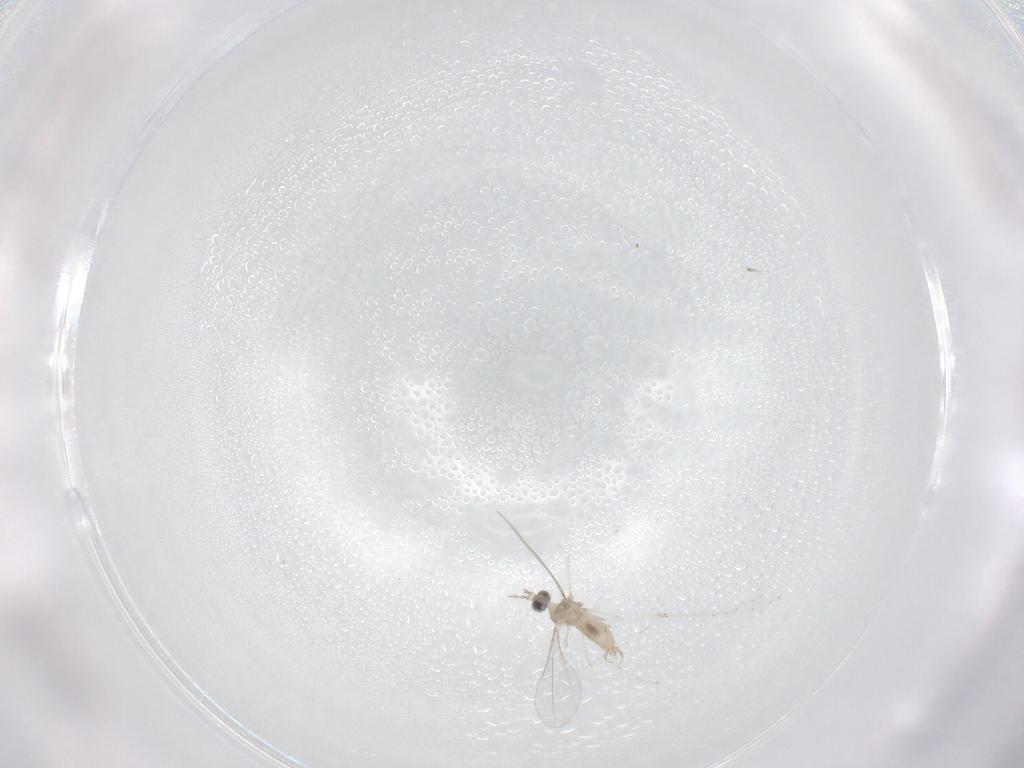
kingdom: Animalia
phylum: Arthropoda
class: Insecta
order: Diptera
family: Cecidomyiidae
